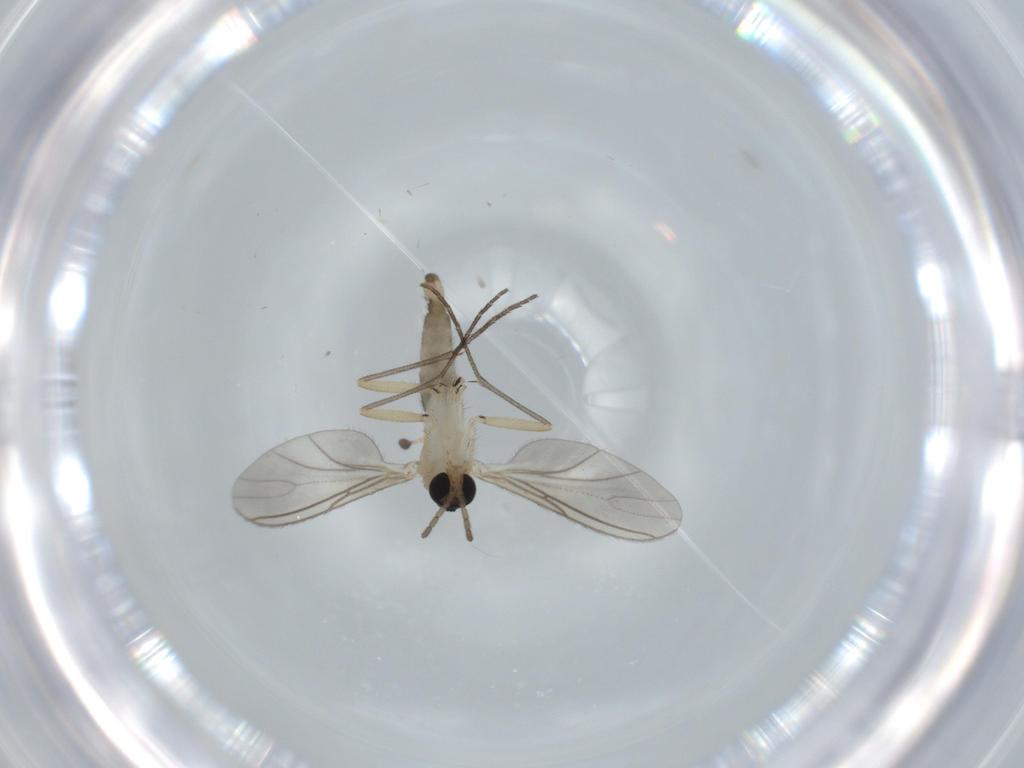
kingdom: Animalia
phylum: Arthropoda
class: Insecta
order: Diptera
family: Sciaridae
